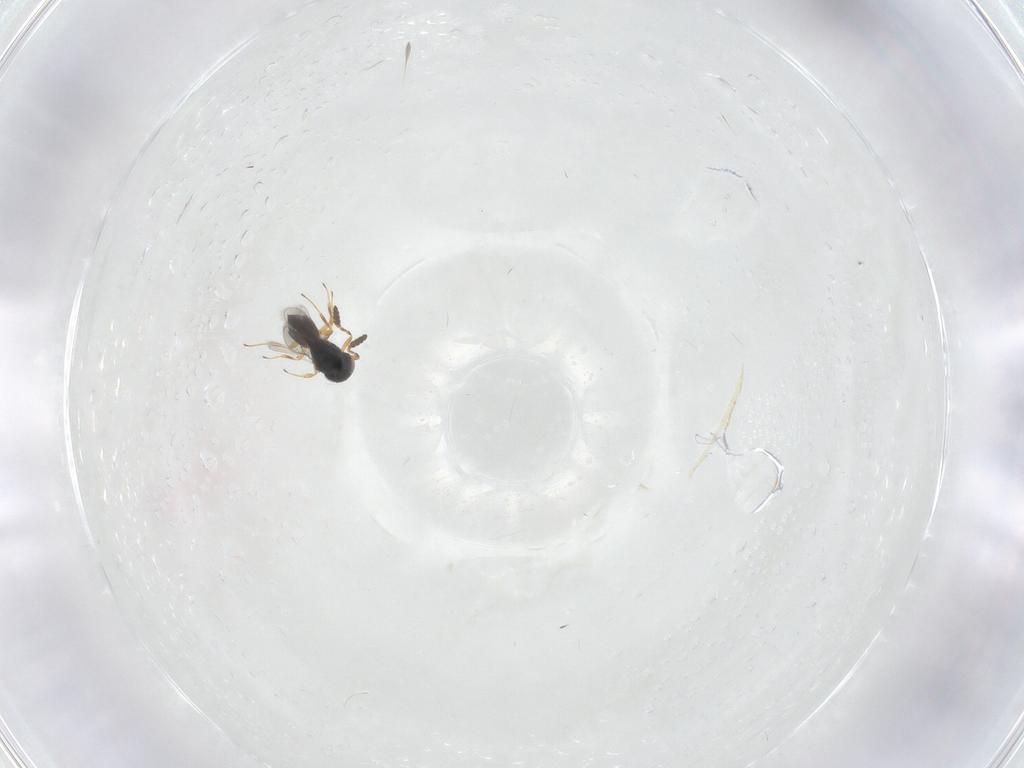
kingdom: Animalia
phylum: Arthropoda
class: Insecta
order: Hymenoptera
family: Scelionidae
